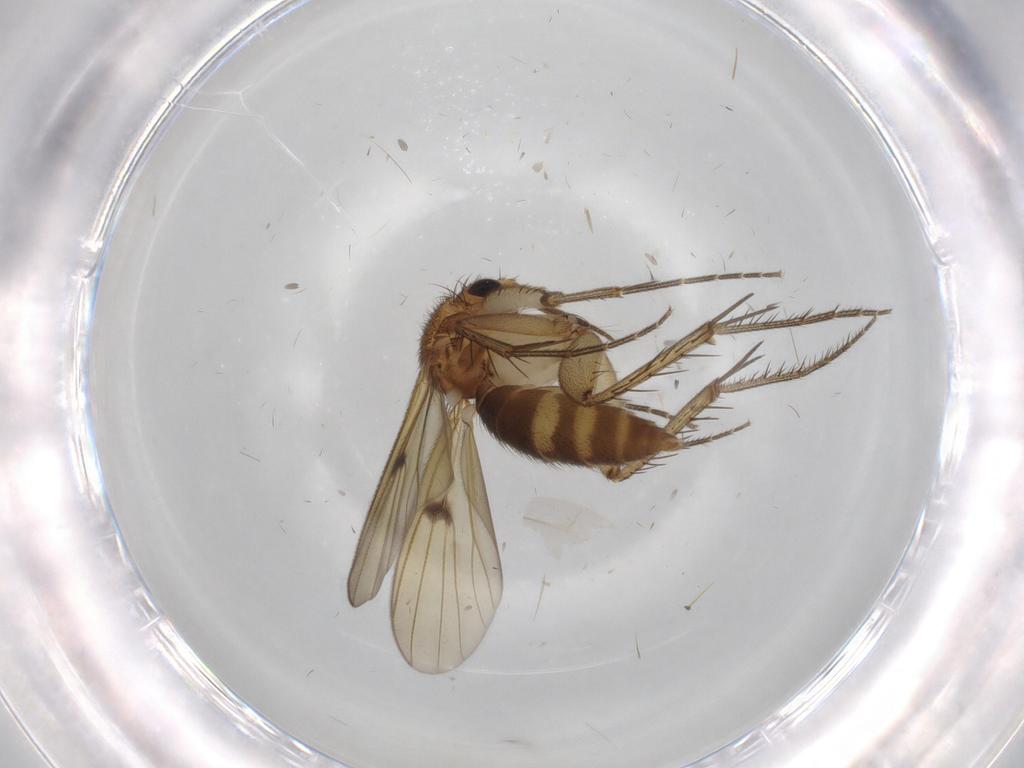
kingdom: Animalia
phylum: Arthropoda
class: Insecta
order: Diptera
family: Mycetophilidae
